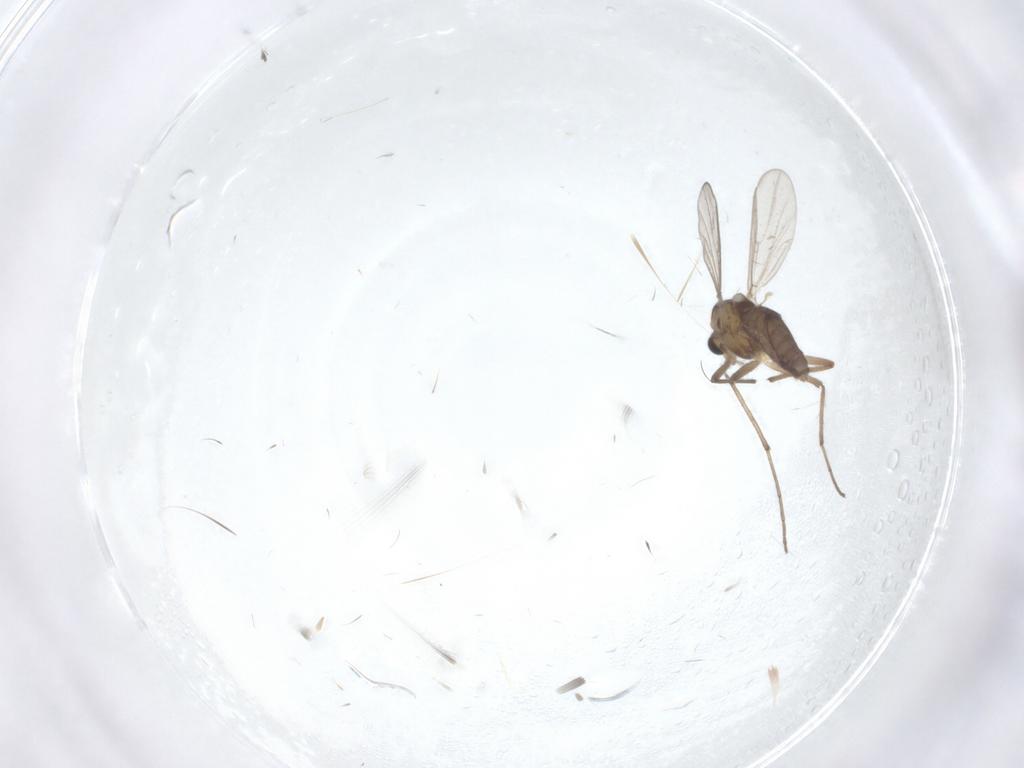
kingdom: Animalia
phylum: Arthropoda
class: Insecta
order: Diptera
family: Chironomidae
